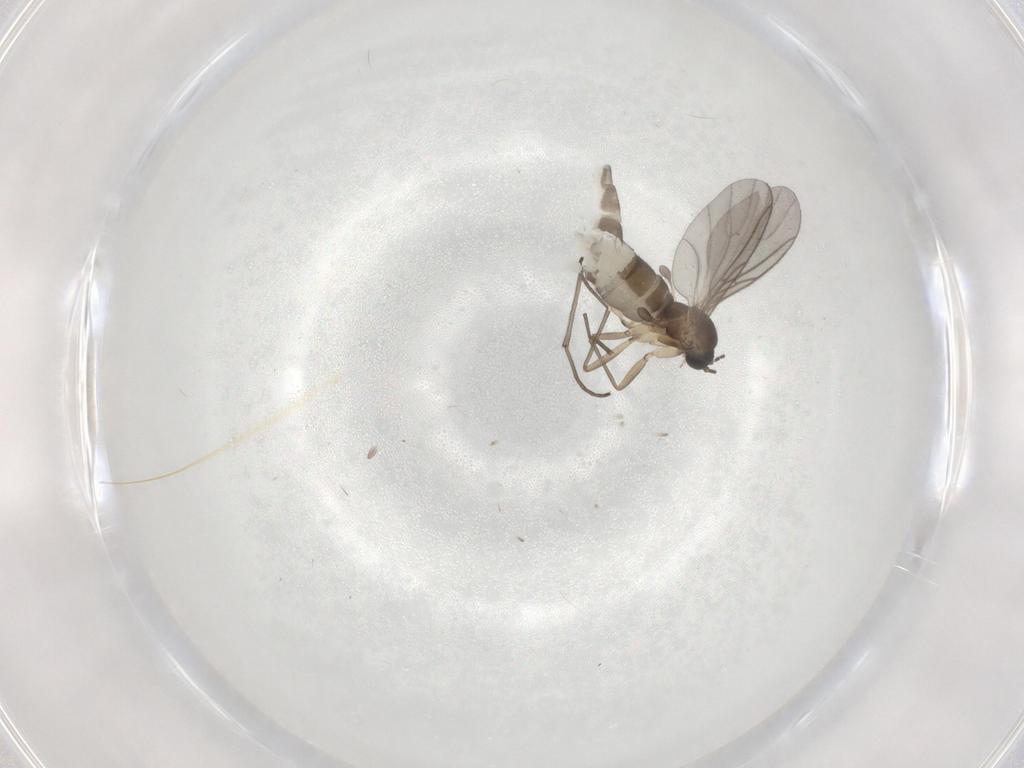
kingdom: Animalia
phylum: Arthropoda
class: Insecta
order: Diptera
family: Sciaridae
